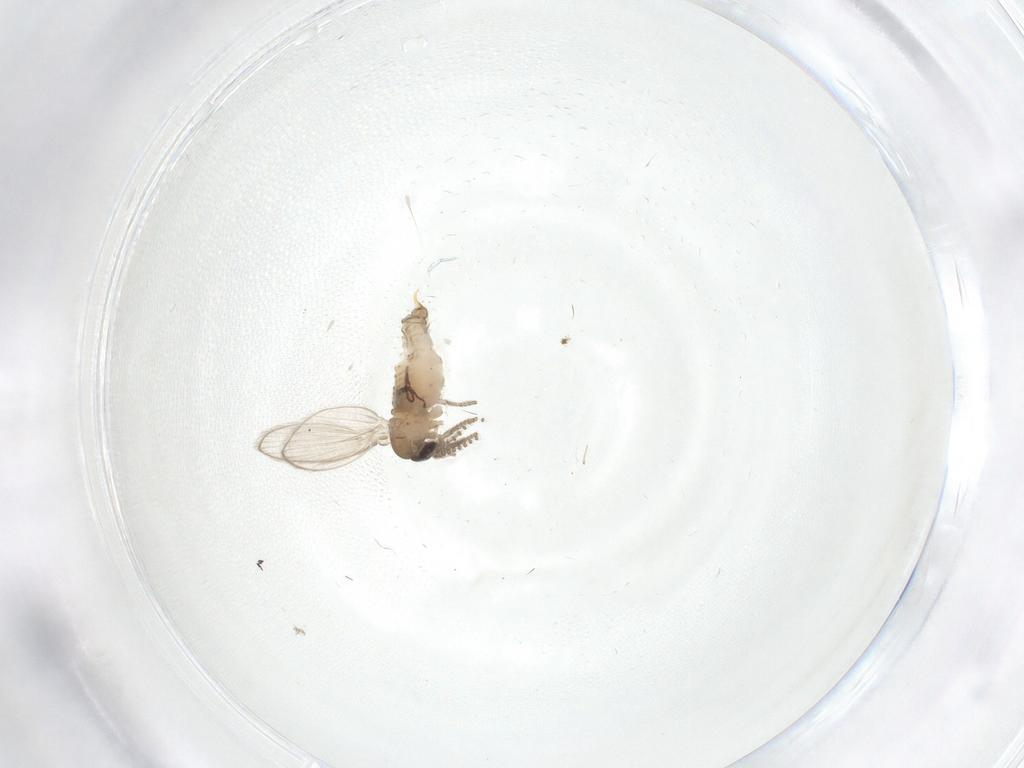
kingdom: Animalia
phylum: Arthropoda
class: Insecta
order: Diptera
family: Psychodidae
